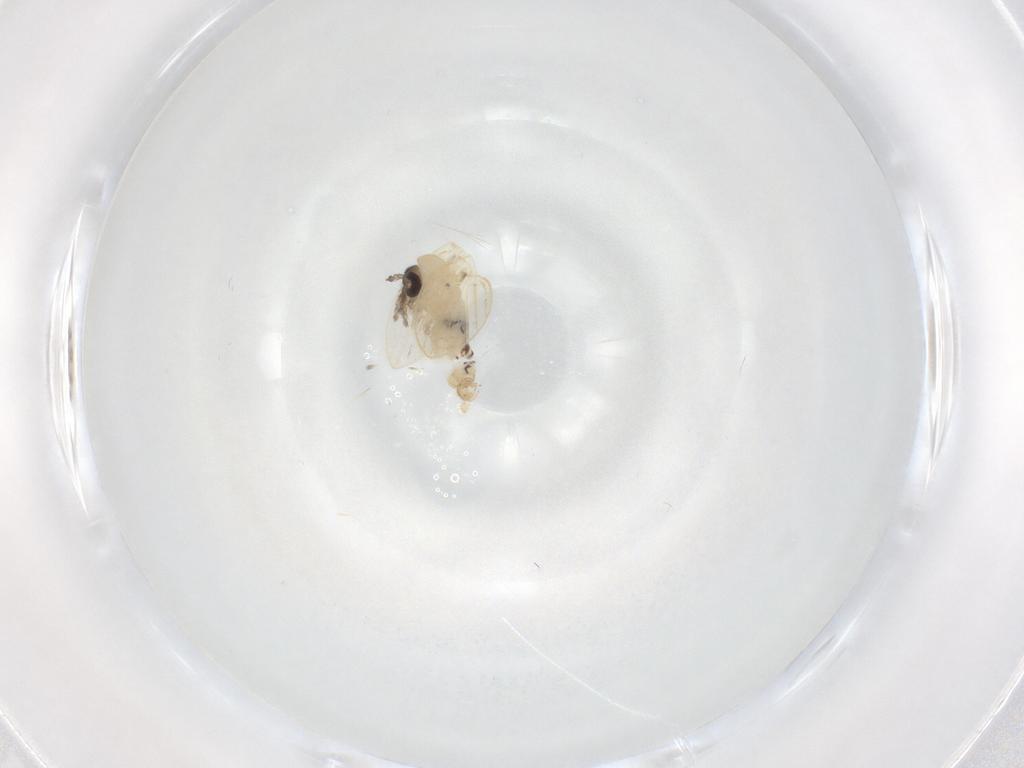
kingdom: Animalia
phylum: Arthropoda
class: Insecta
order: Diptera
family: Psychodidae
